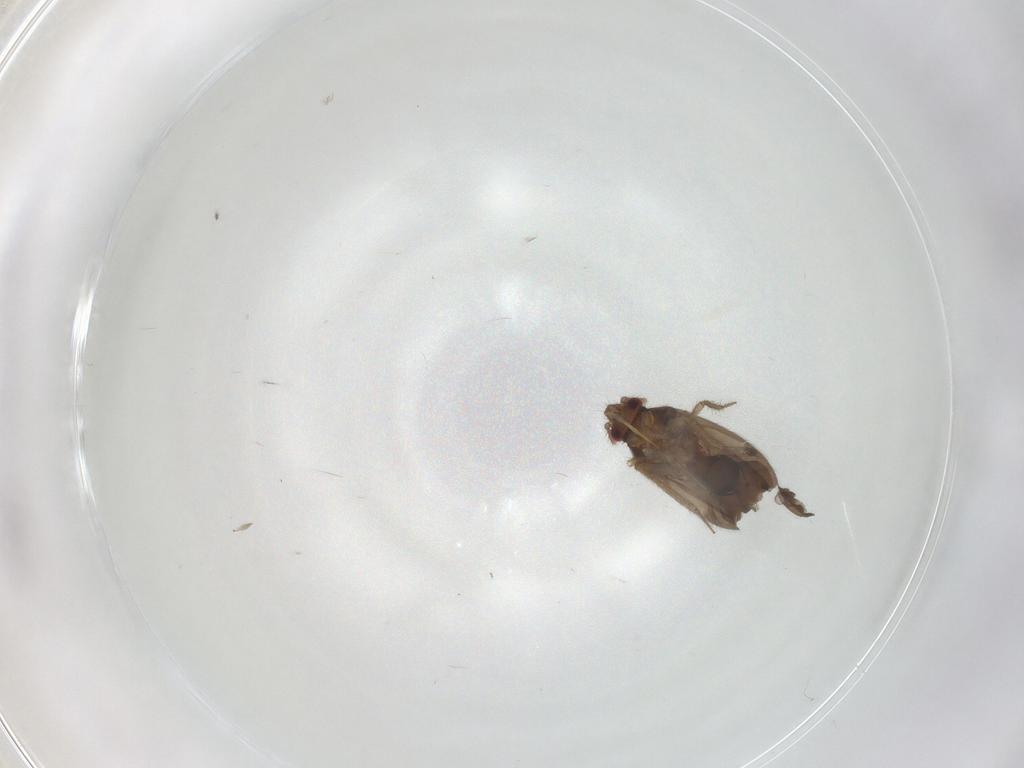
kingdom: Animalia
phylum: Arthropoda
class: Insecta
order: Hemiptera
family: Ceratocombidae
